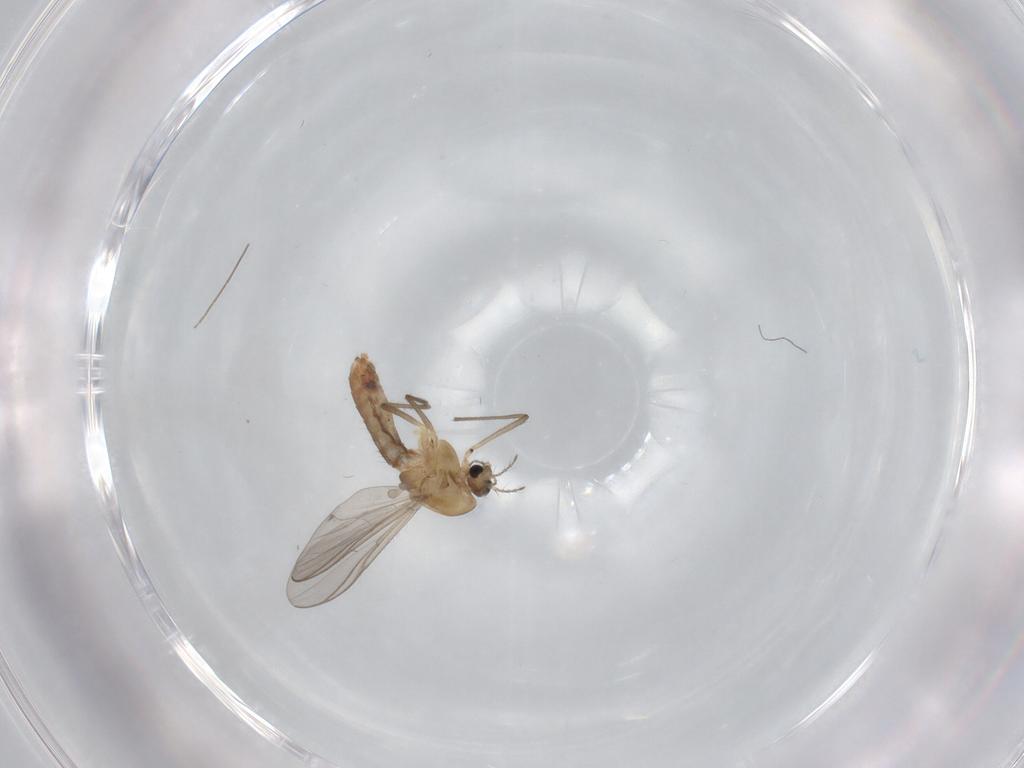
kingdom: Animalia
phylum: Arthropoda
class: Insecta
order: Diptera
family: Chironomidae
